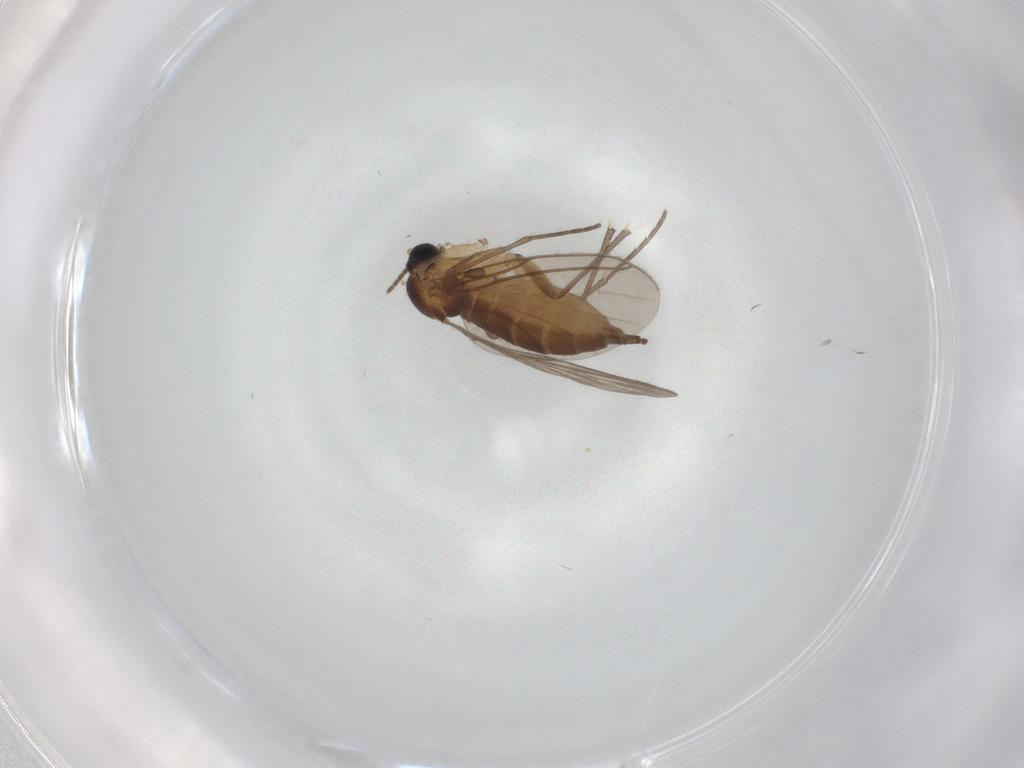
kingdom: Animalia
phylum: Arthropoda
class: Insecta
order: Diptera
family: Sciaridae
